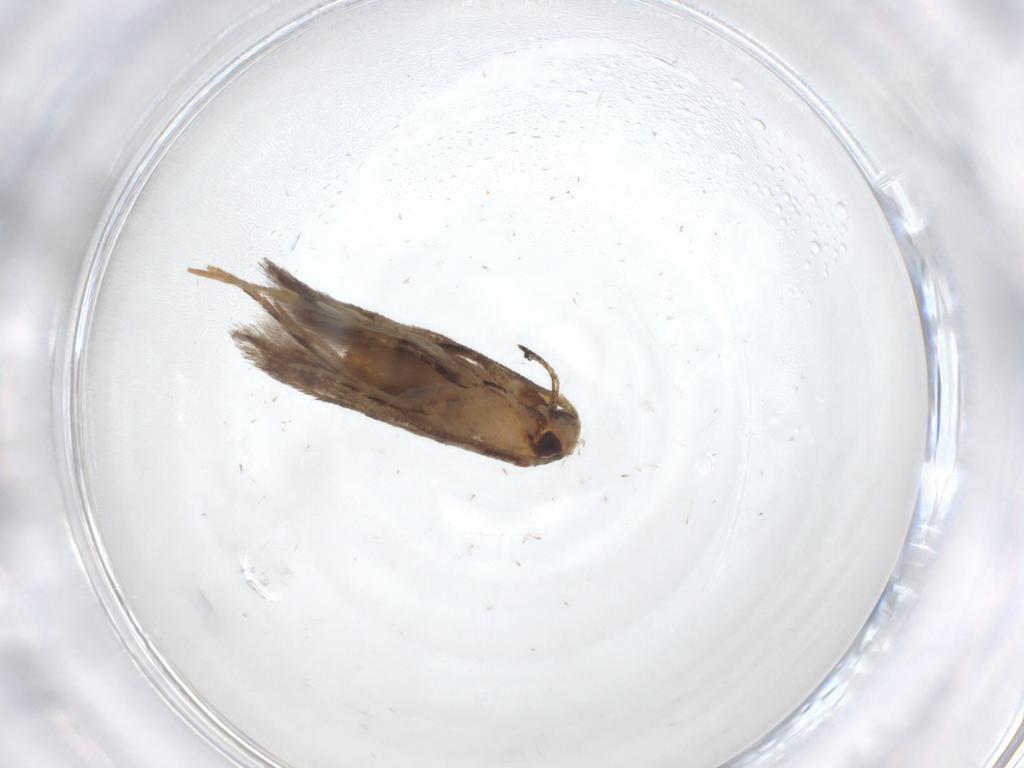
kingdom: Animalia
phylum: Arthropoda
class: Insecta
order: Lepidoptera
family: Cosmopterigidae
